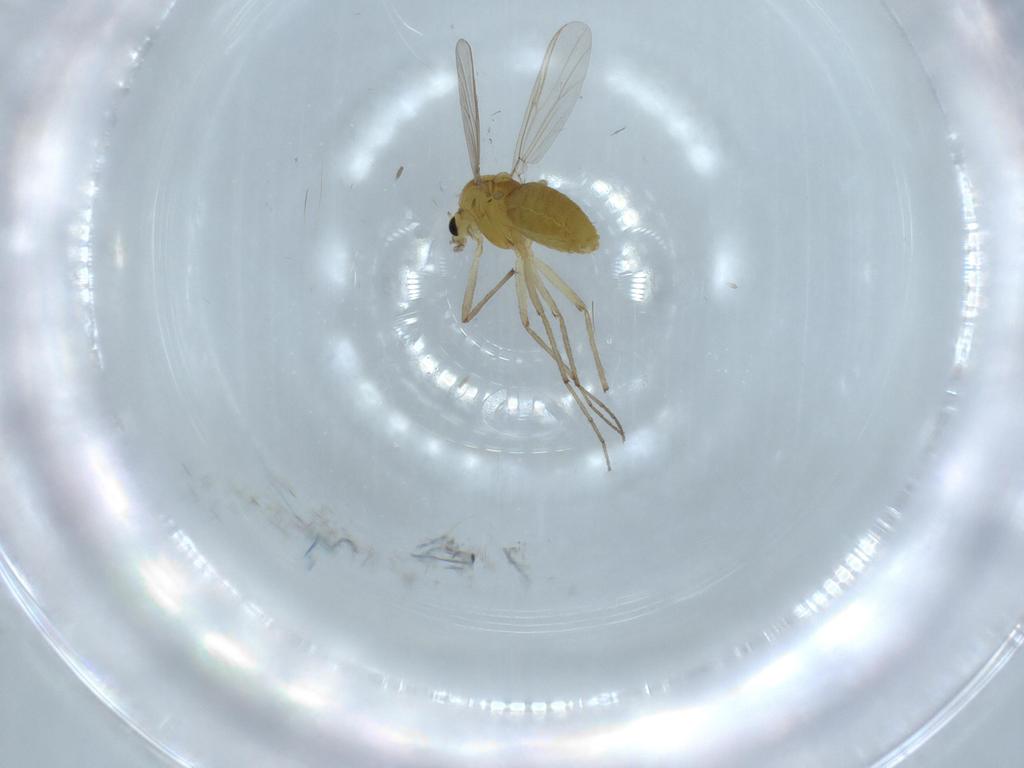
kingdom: Animalia
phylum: Arthropoda
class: Insecta
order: Diptera
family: Chironomidae
